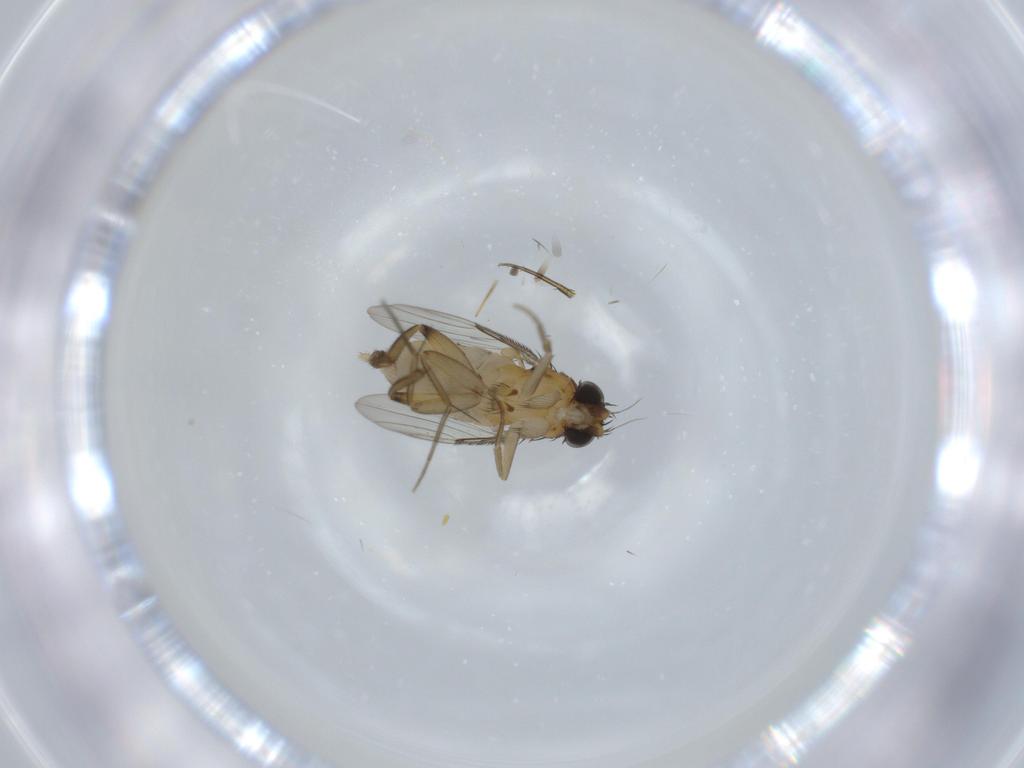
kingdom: Animalia
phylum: Arthropoda
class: Insecta
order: Diptera
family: Phoridae
